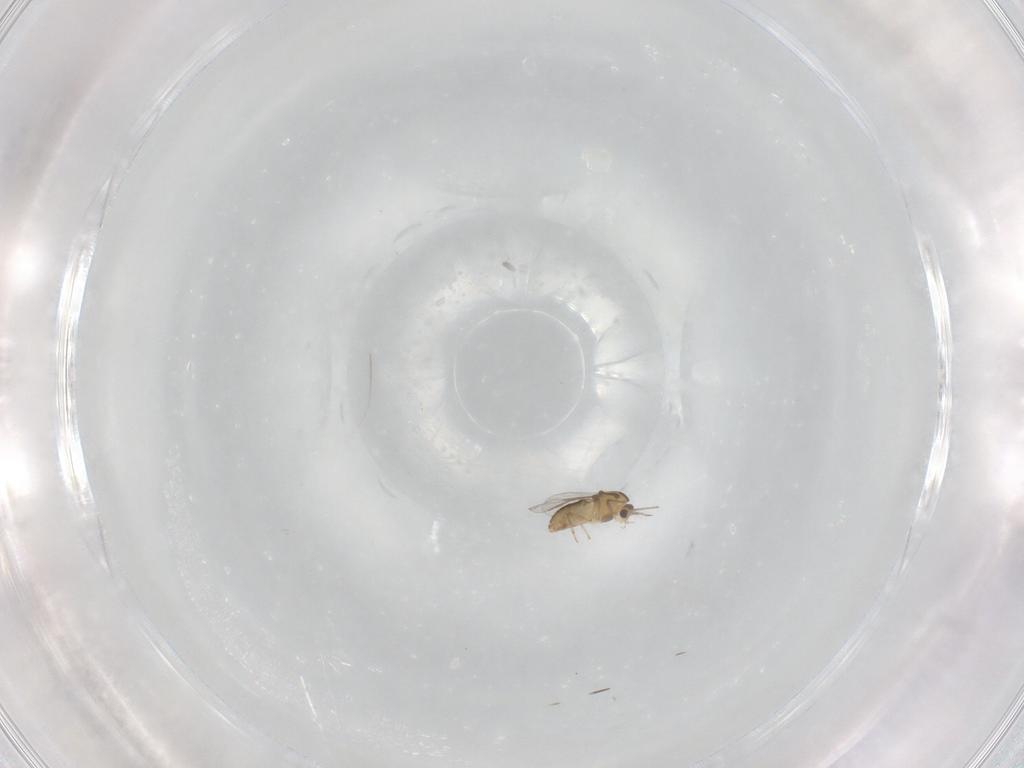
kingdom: Animalia
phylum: Arthropoda
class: Insecta
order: Diptera
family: Chironomidae
